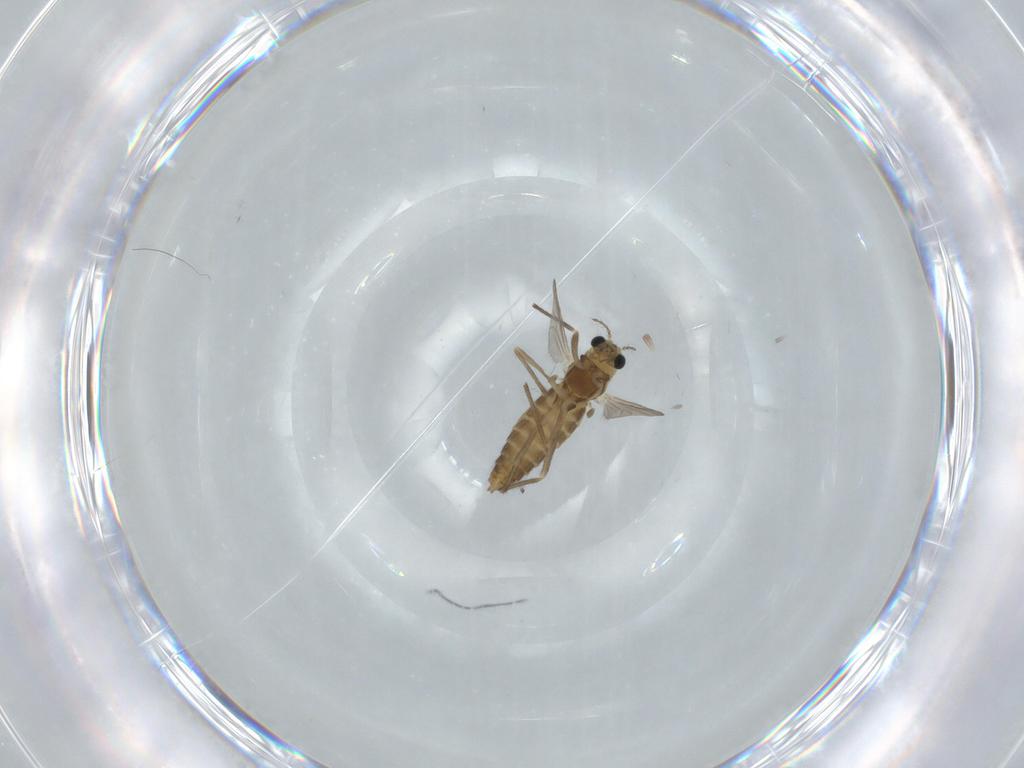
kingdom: Animalia
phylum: Arthropoda
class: Insecta
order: Diptera
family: Chironomidae
